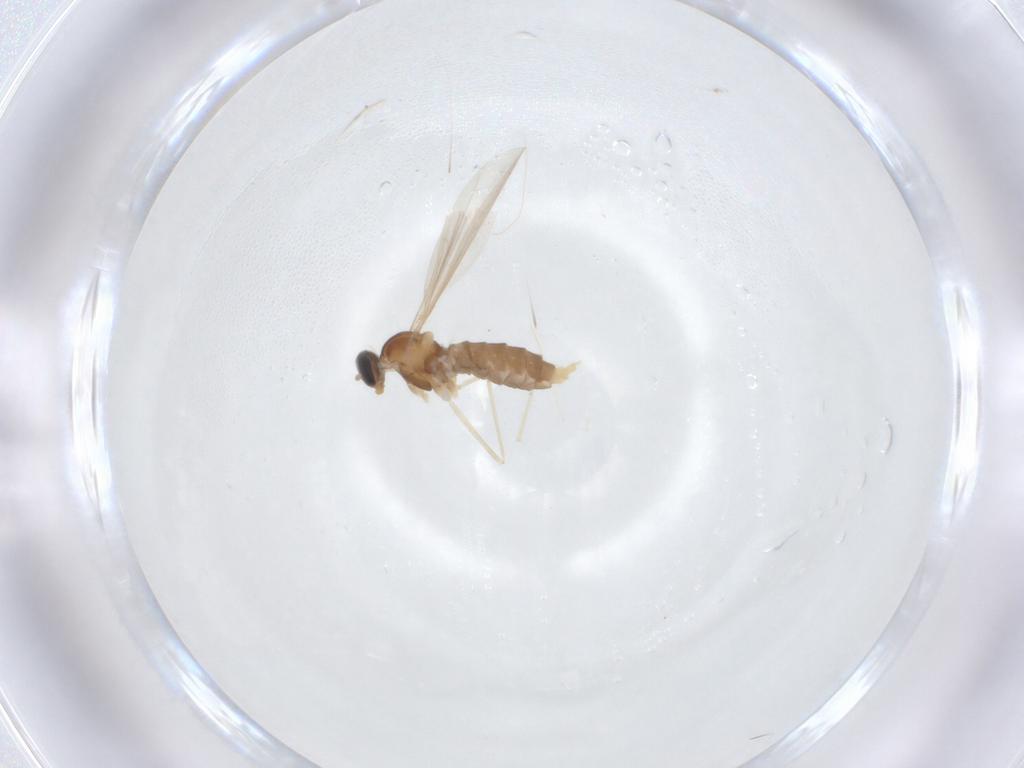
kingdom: Animalia
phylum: Arthropoda
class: Insecta
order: Diptera
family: Cecidomyiidae
